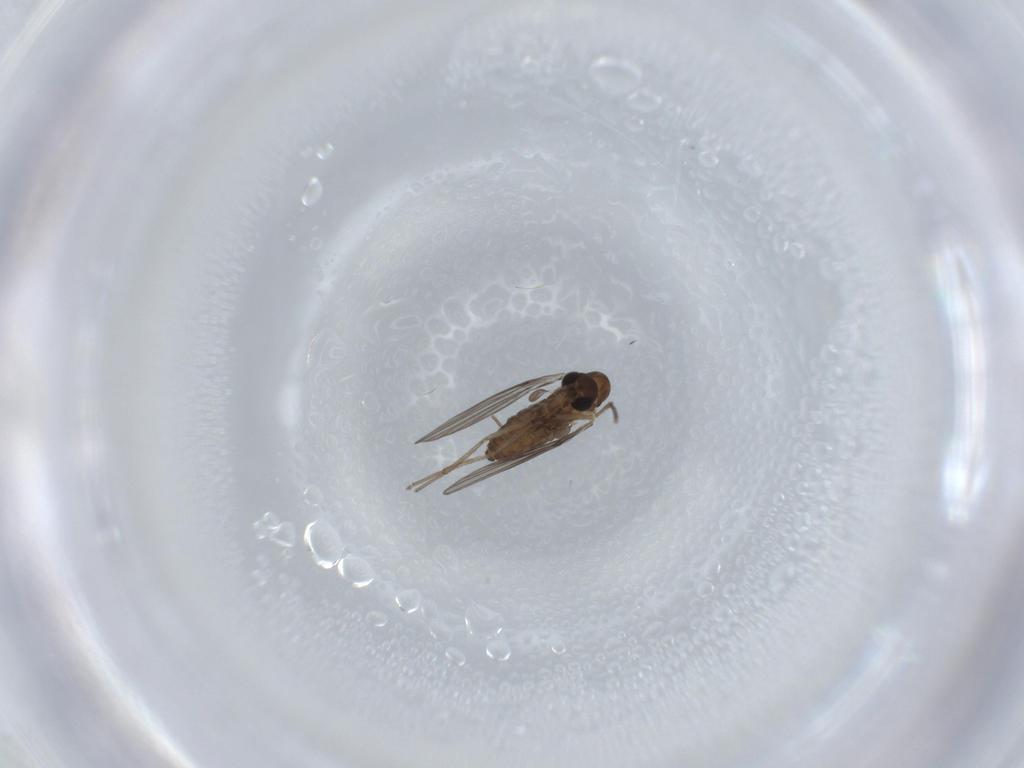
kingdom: Animalia
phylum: Arthropoda
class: Insecta
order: Diptera
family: Psychodidae
